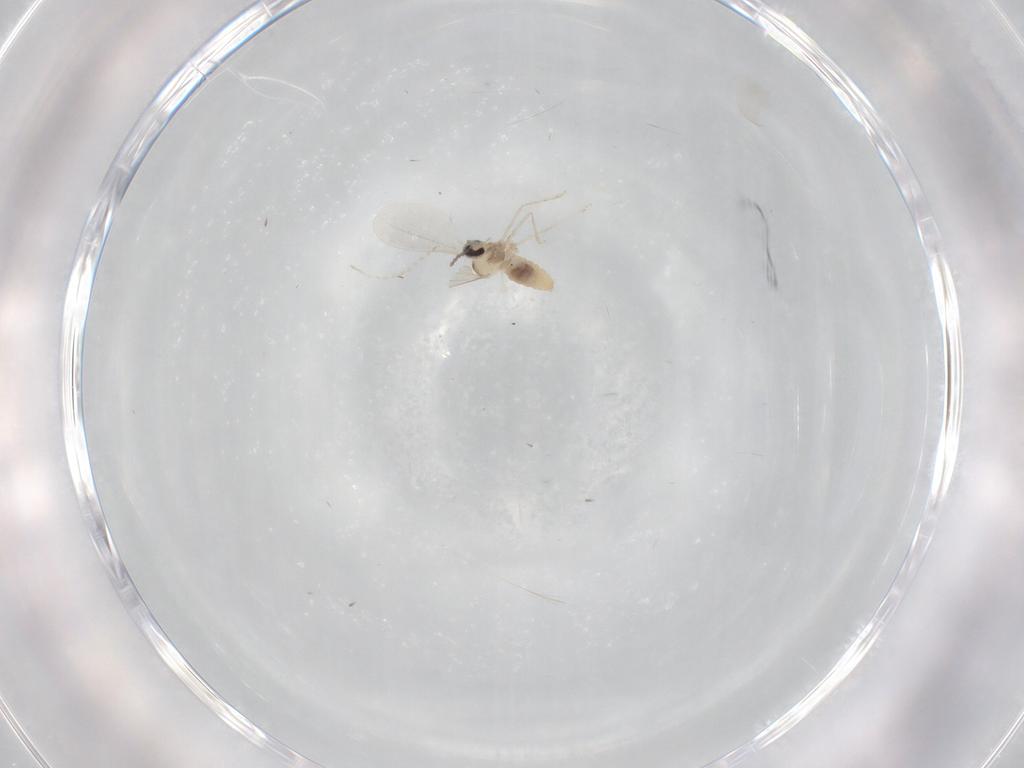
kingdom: Animalia
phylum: Arthropoda
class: Insecta
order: Diptera
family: Cecidomyiidae
